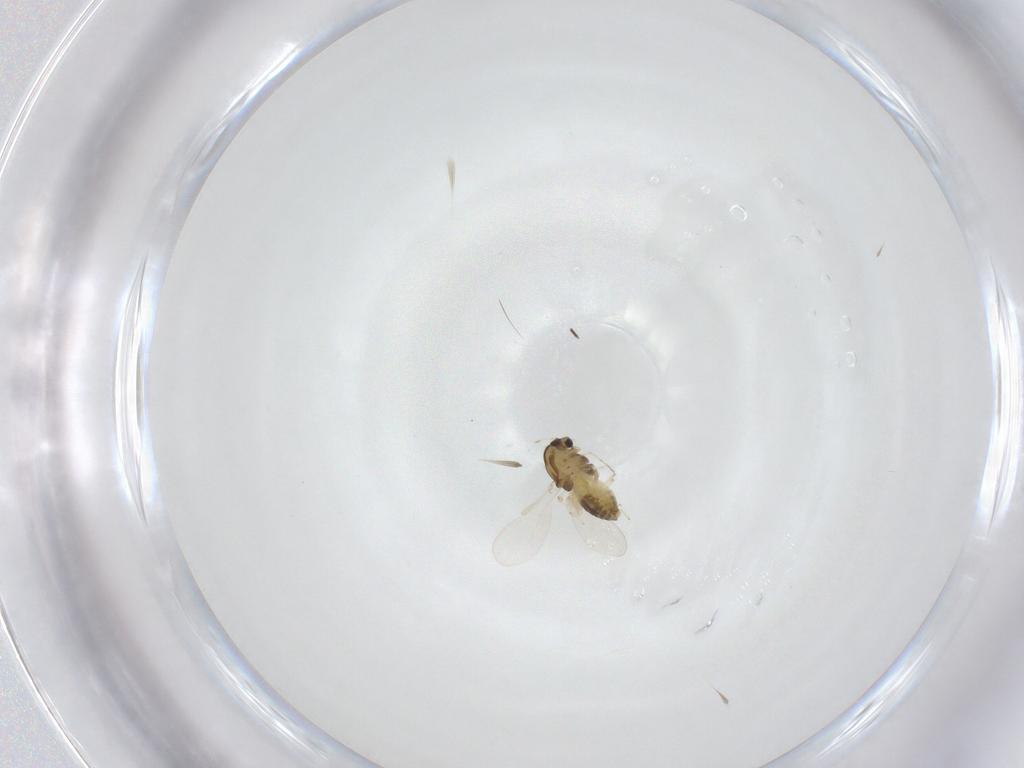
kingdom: Animalia
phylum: Arthropoda
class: Insecta
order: Diptera
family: Chironomidae
